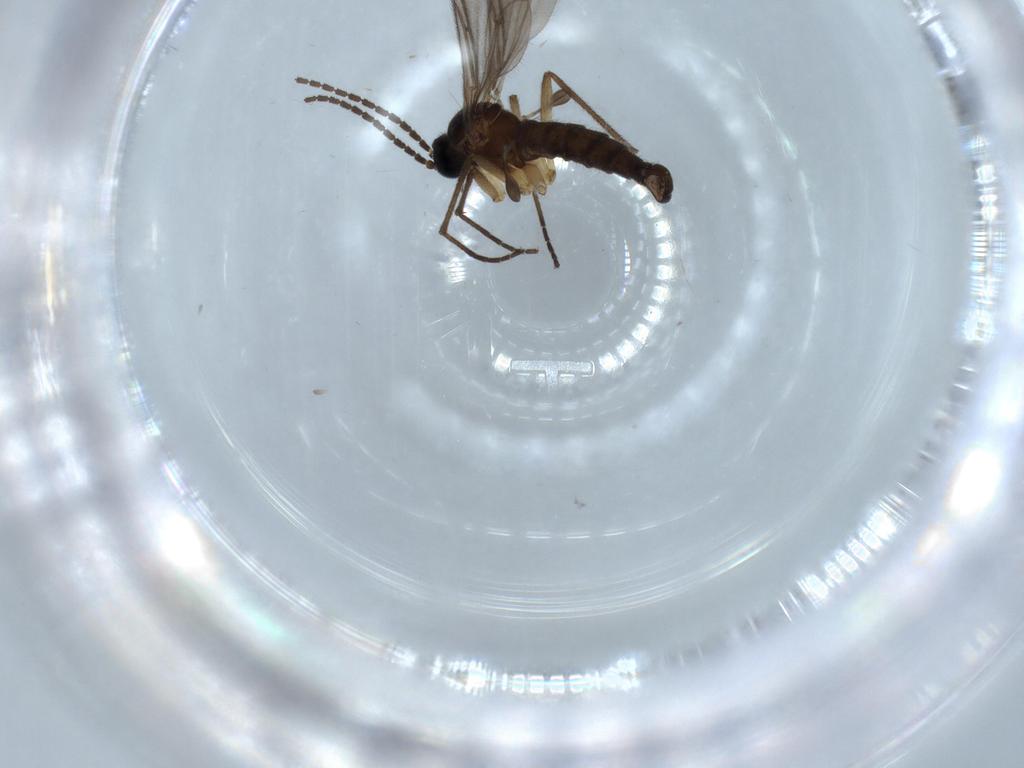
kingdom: Animalia
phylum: Arthropoda
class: Insecta
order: Diptera
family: Sciaridae
